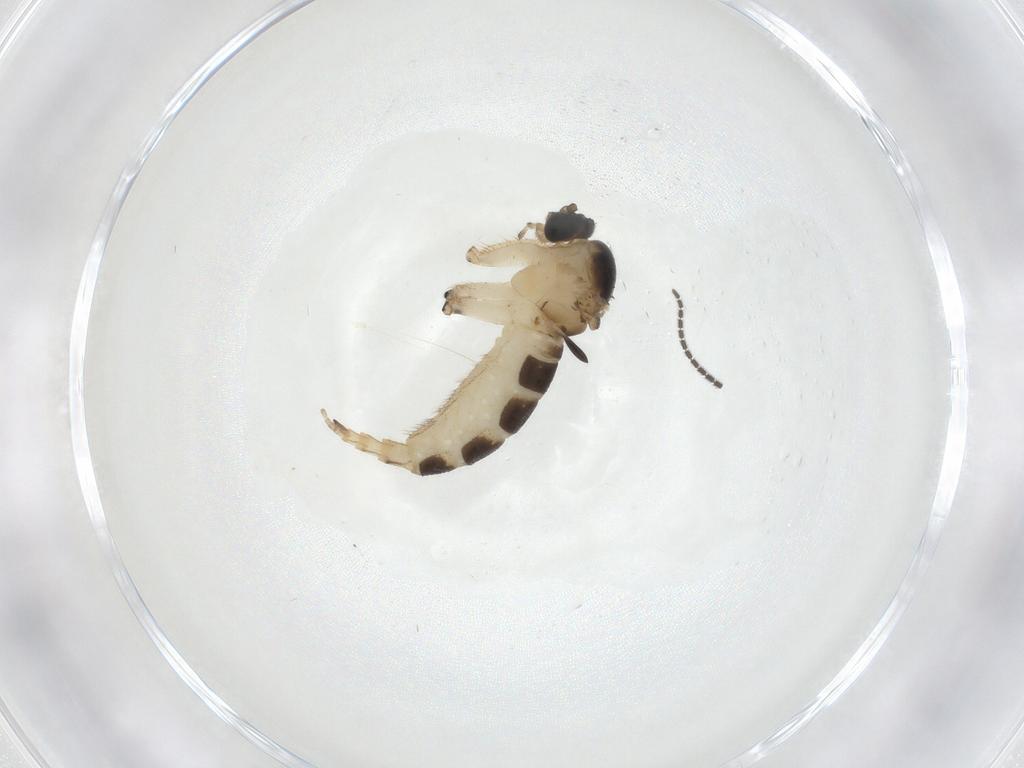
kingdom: Animalia
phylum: Arthropoda
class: Insecta
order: Diptera
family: Sciaridae
